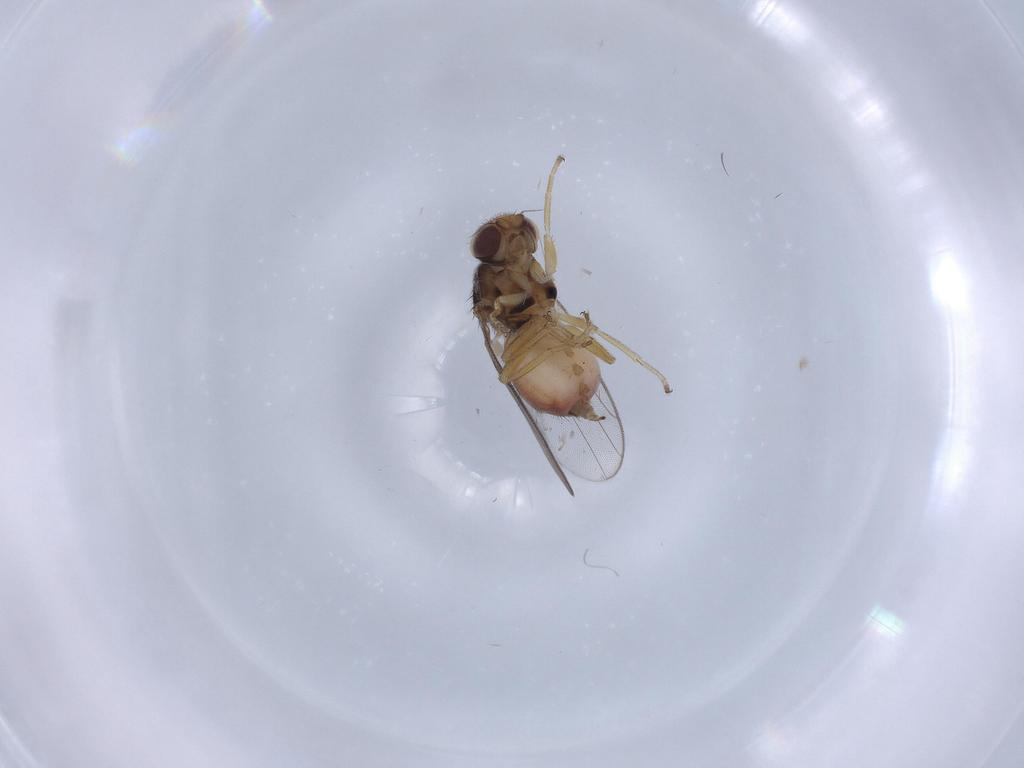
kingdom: Animalia
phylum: Arthropoda
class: Insecta
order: Diptera
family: Chloropidae
